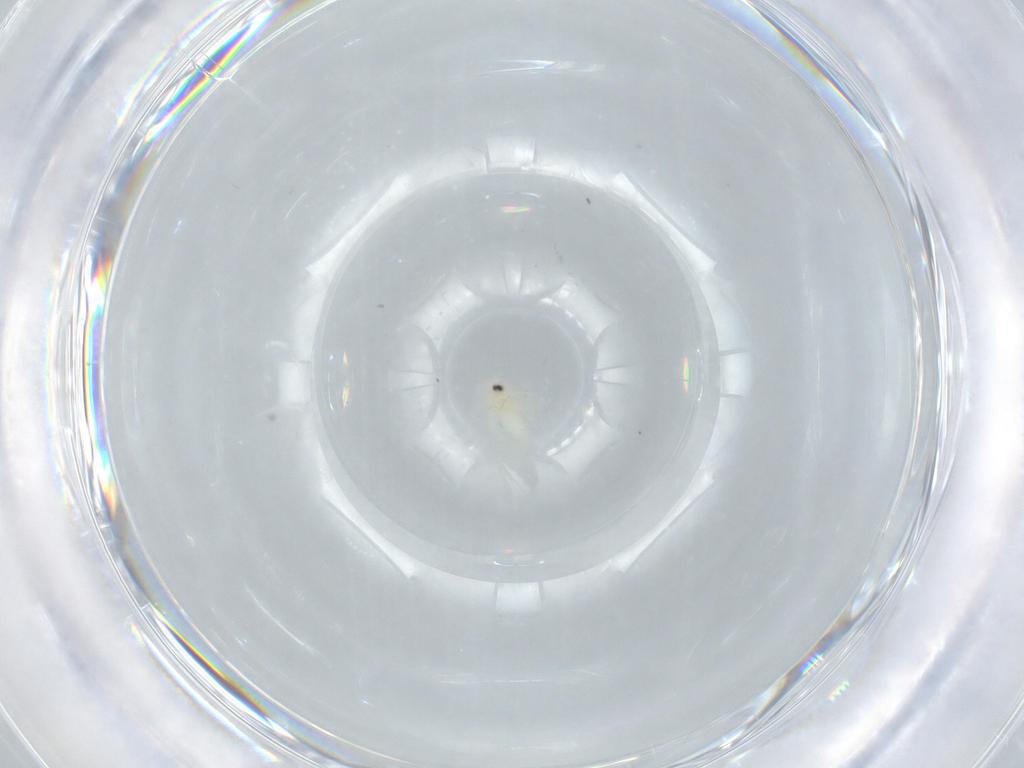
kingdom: Animalia
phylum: Arthropoda
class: Insecta
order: Hemiptera
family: Aleyrodidae
